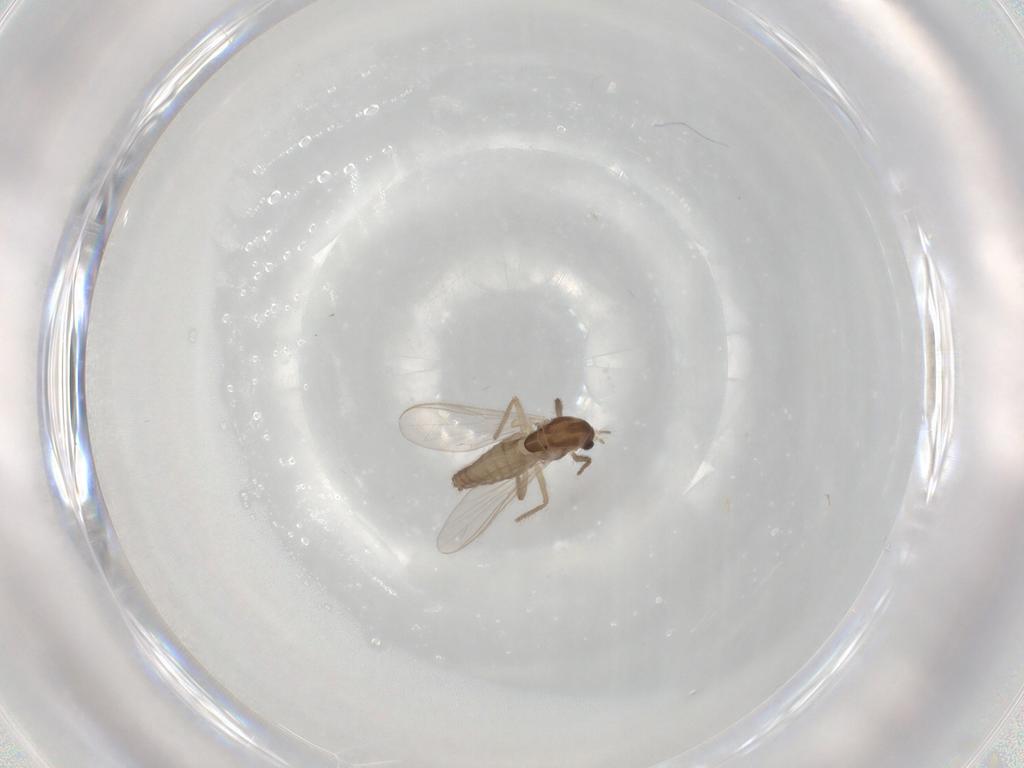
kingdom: Animalia
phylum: Arthropoda
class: Insecta
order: Diptera
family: Chironomidae
